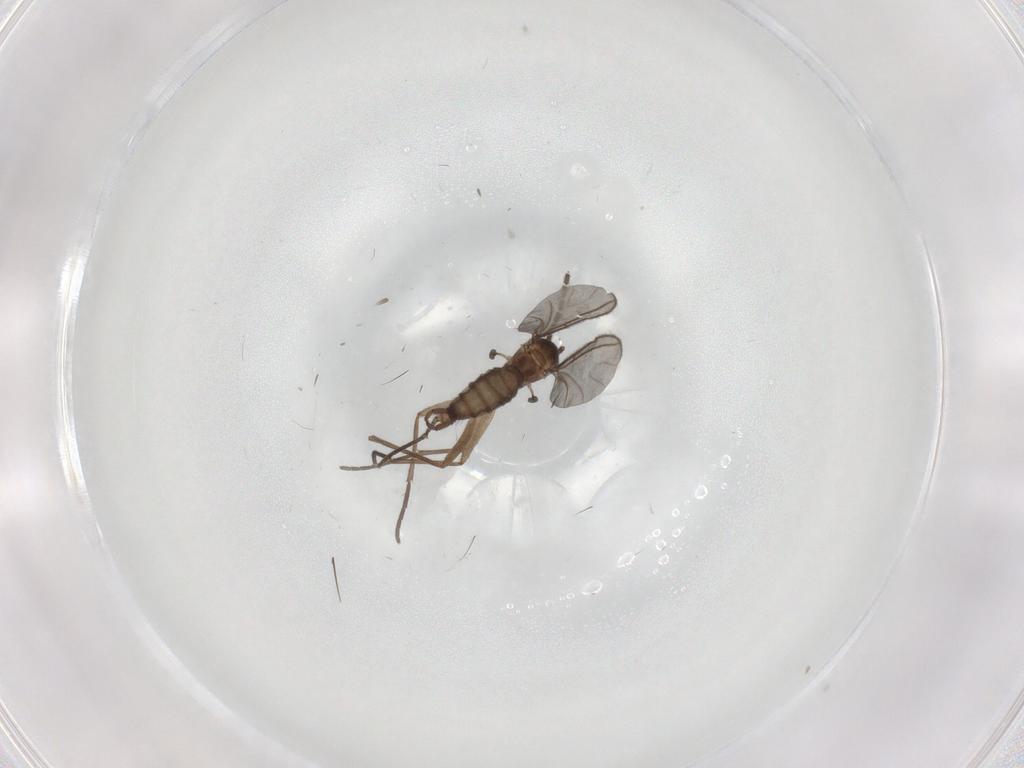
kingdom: Animalia
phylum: Arthropoda
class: Insecta
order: Diptera
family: Sciaridae
